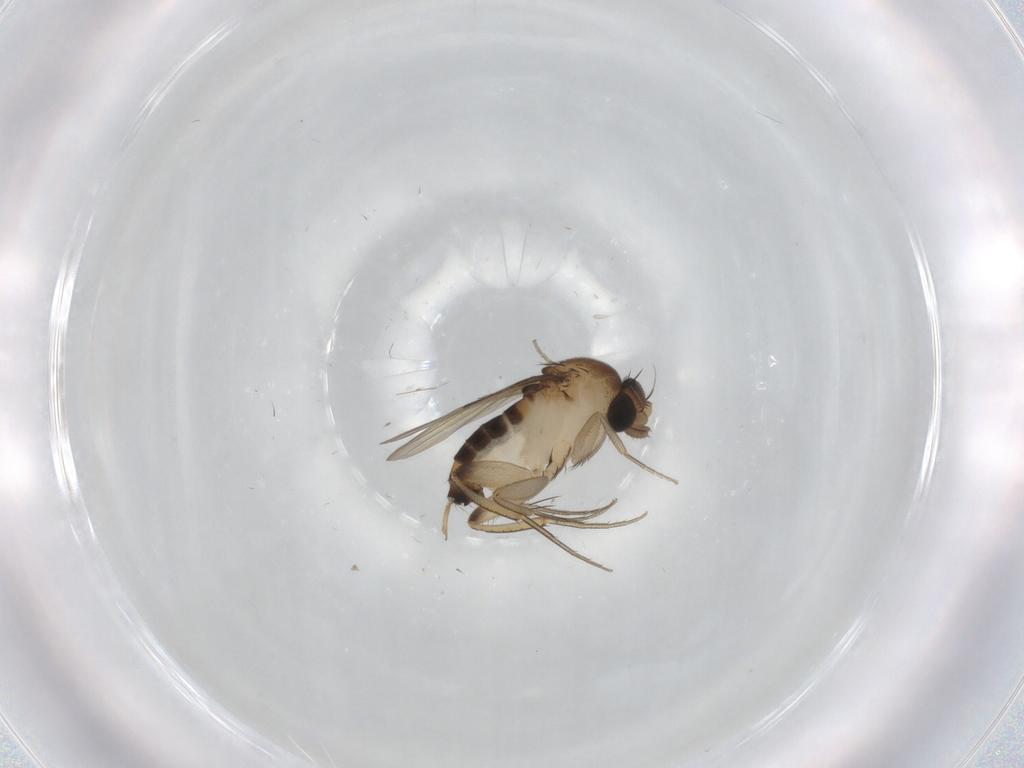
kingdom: Animalia
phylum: Arthropoda
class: Insecta
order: Diptera
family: Phoridae
